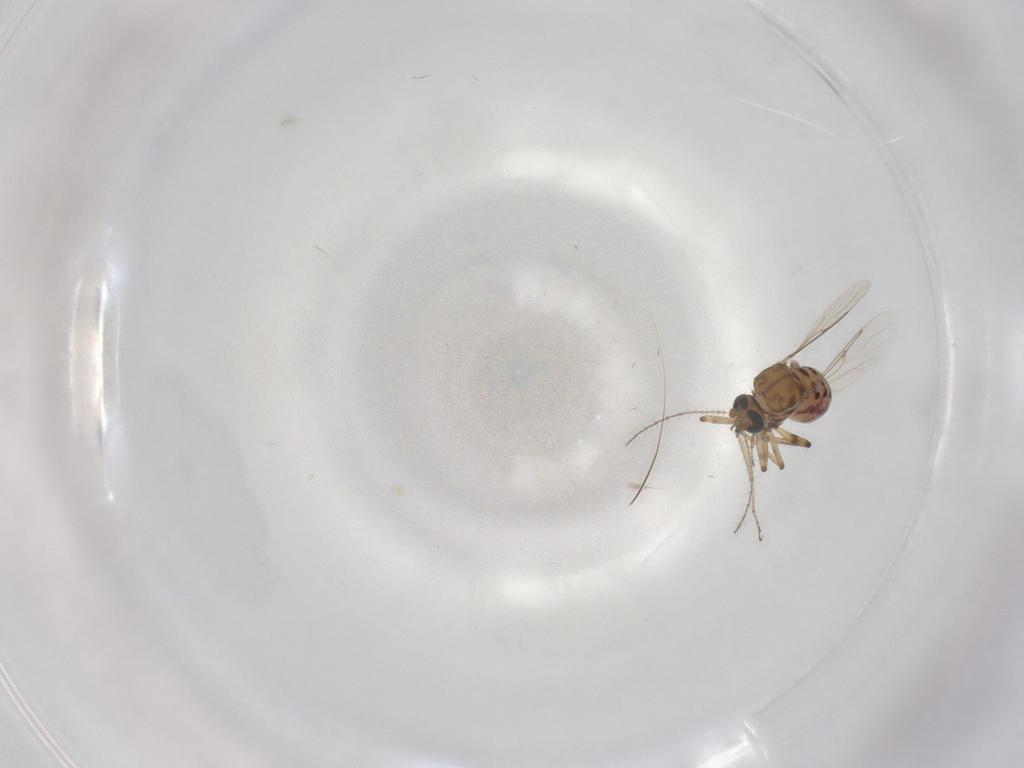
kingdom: Animalia
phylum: Arthropoda
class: Insecta
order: Diptera
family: Ceratopogonidae
